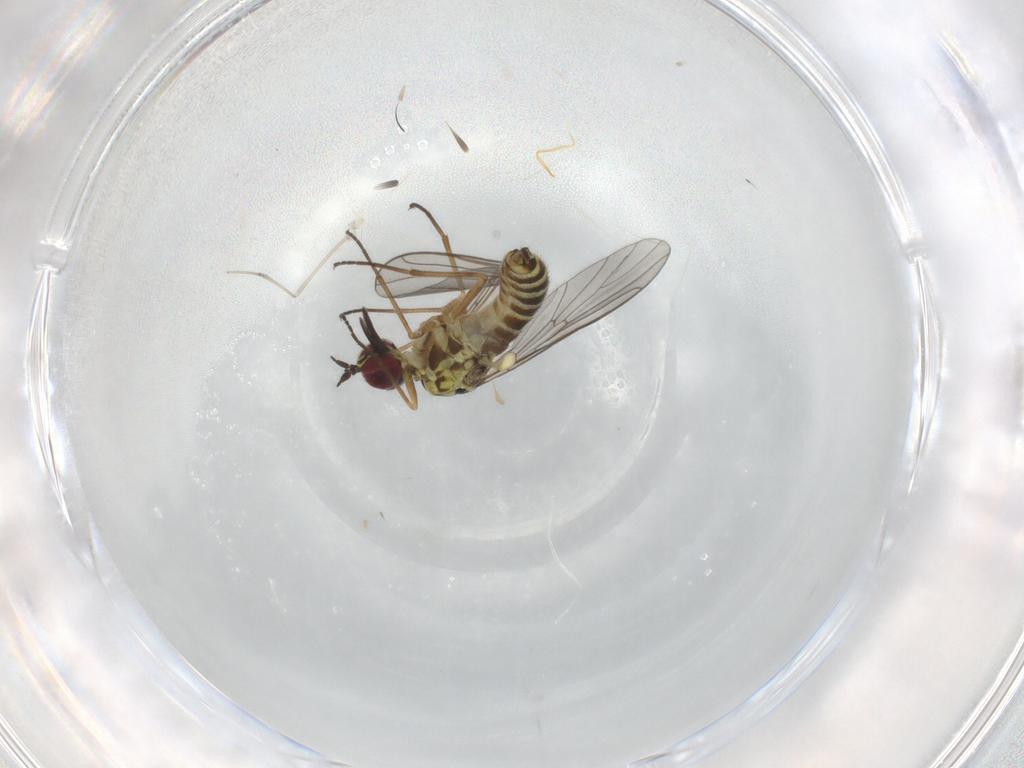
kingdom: Animalia
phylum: Arthropoda
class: Insecta
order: Diptera
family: Mythicomyiidae
